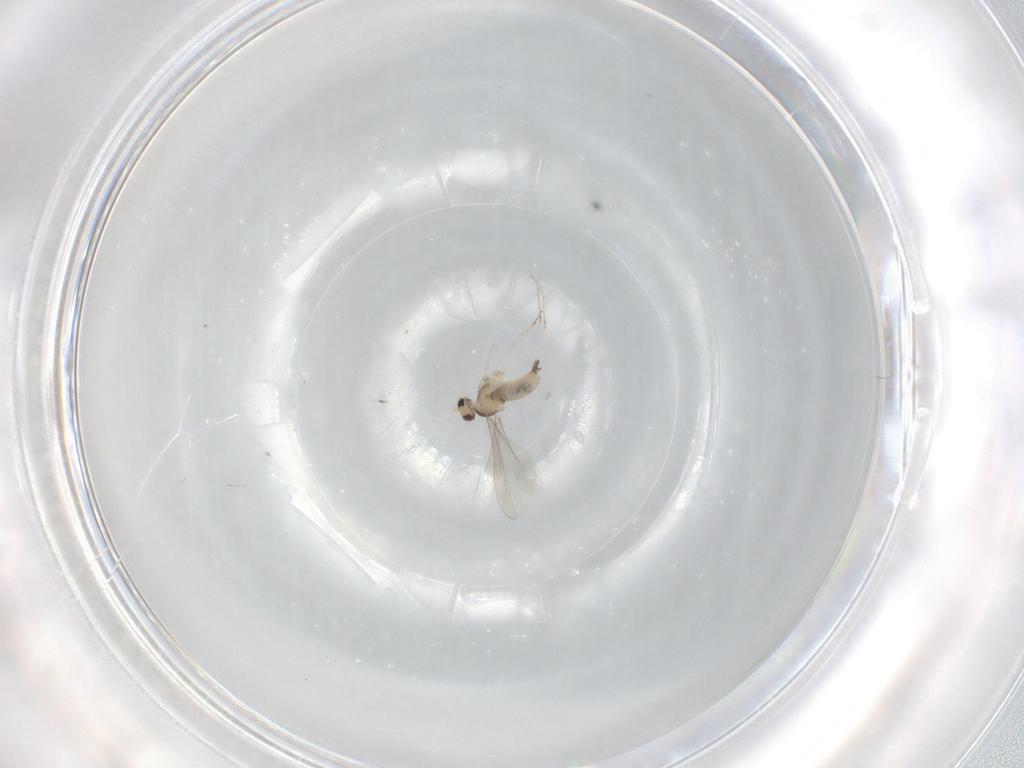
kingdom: Animalia
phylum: Arthropoda
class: Insecta
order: Diptera
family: Cecidomyiidae
